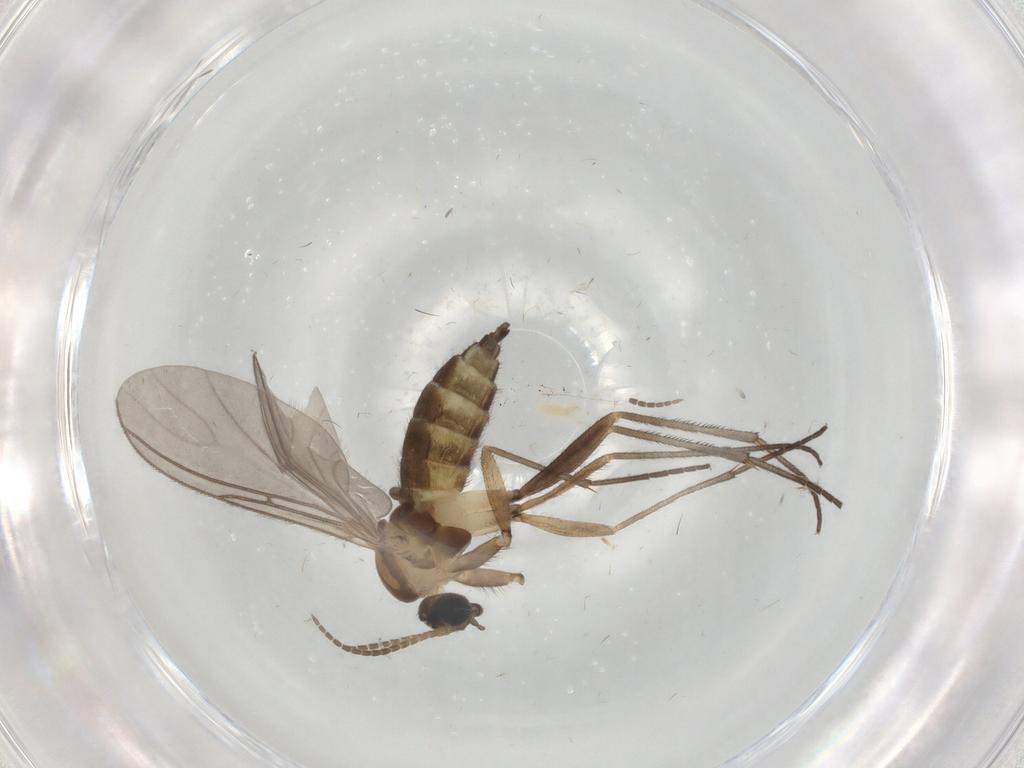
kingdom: Animalia
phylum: Arthropoda
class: Insecta
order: Diptera
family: Sciaridae
